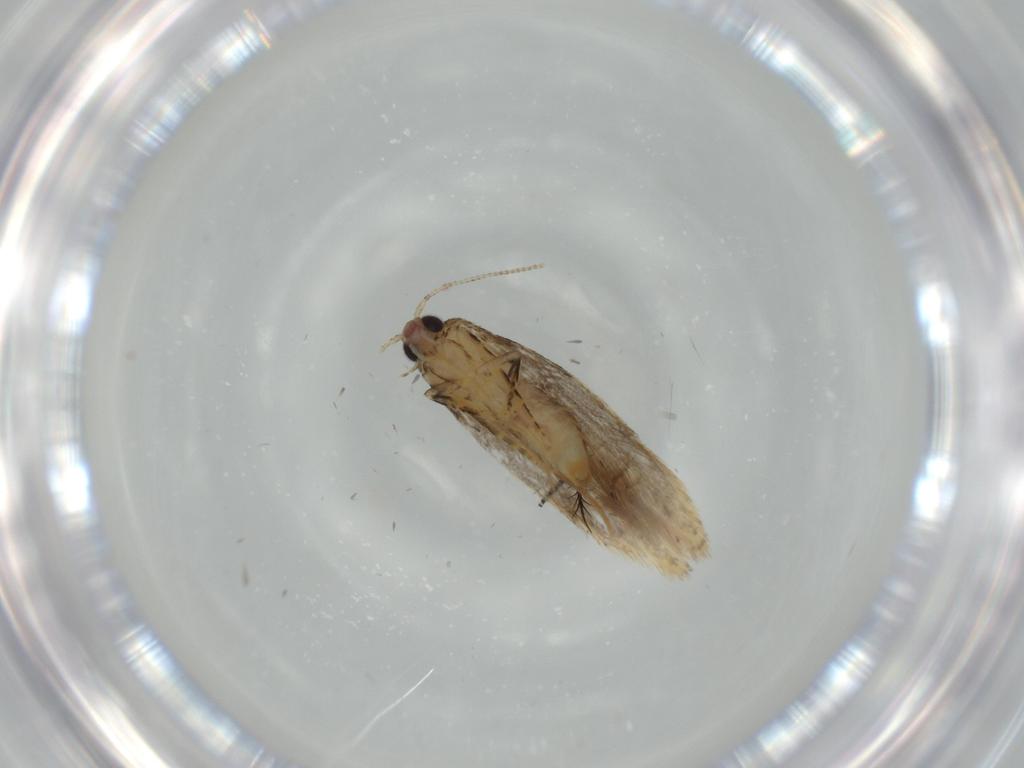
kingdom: Animalia
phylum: Arthropoda
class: Insecta
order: Lepidoptera
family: Tineidae
